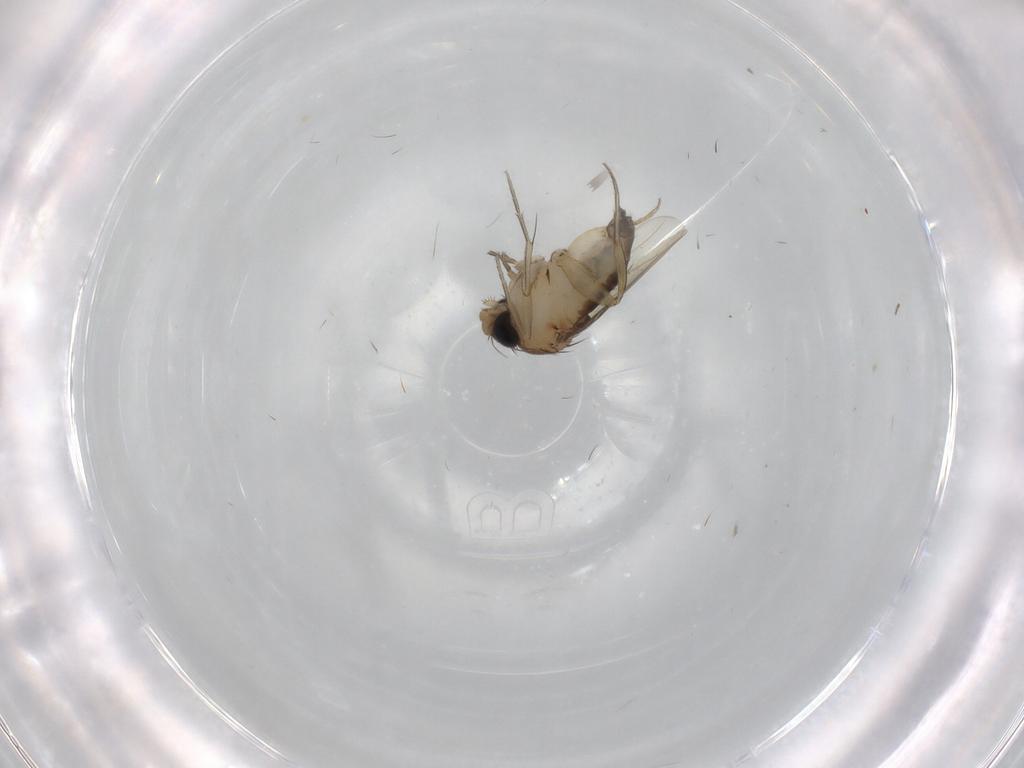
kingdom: Animalia
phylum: Arthropoda
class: Insecta
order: Diptera
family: Phoridae
